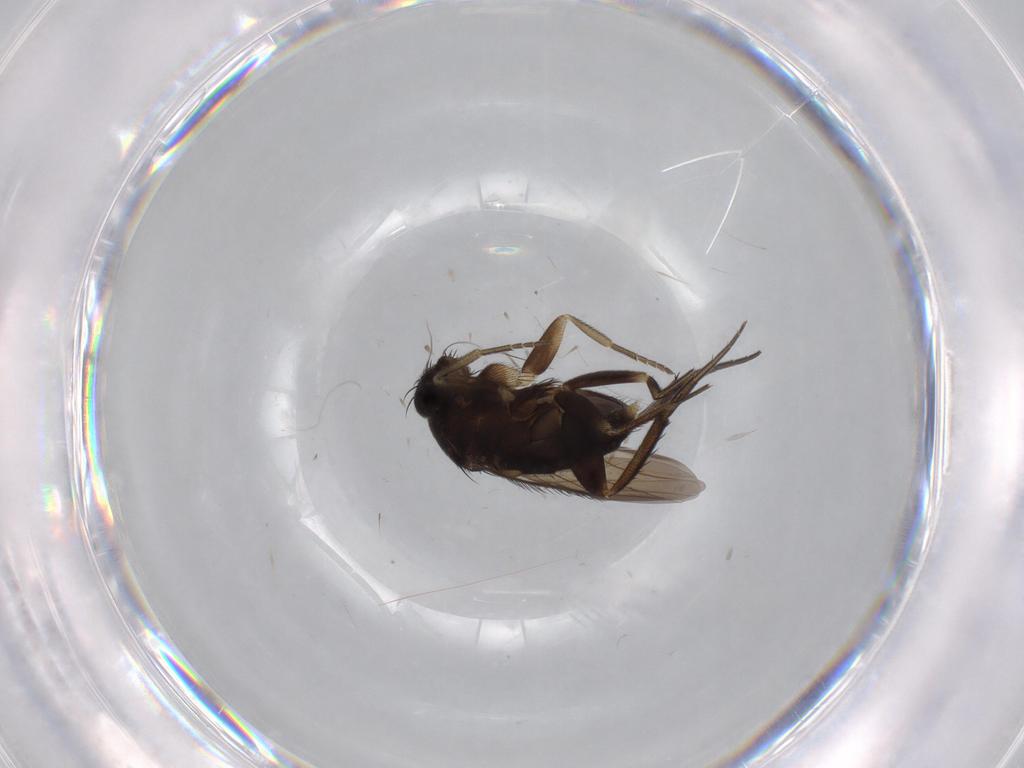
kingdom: Animalia
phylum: Arthropoda
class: Insecta
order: Diptera
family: Phoridae
